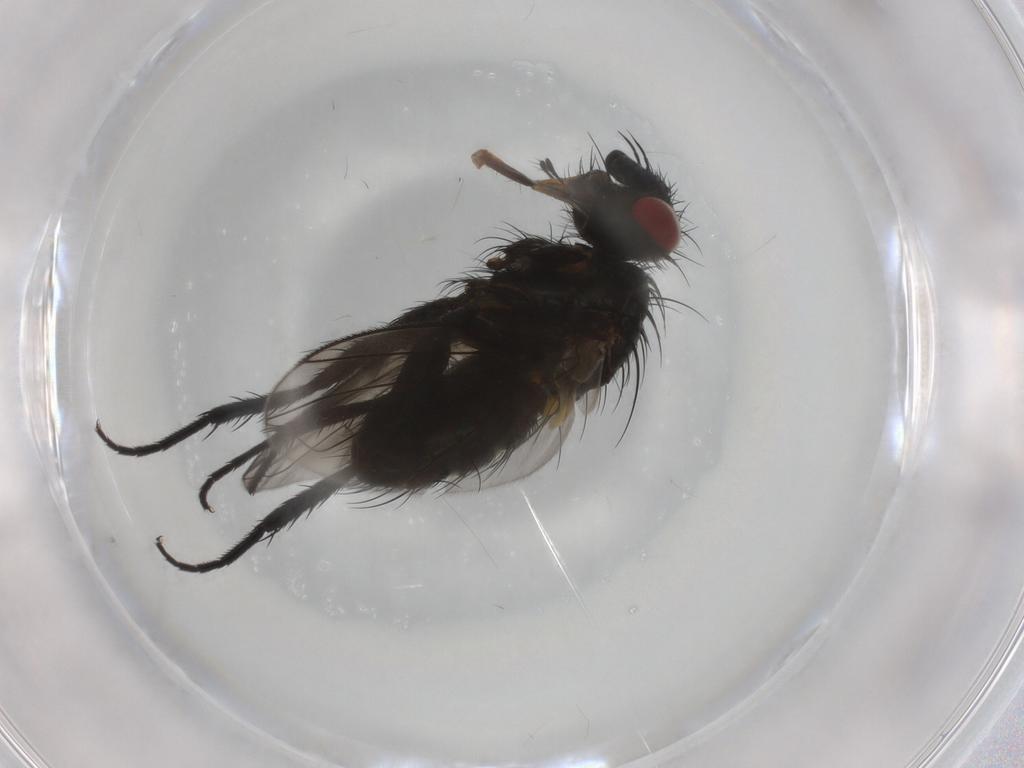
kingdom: Animalia
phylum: Arthropoda
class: Insecta
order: Diptera
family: Tachinidae
